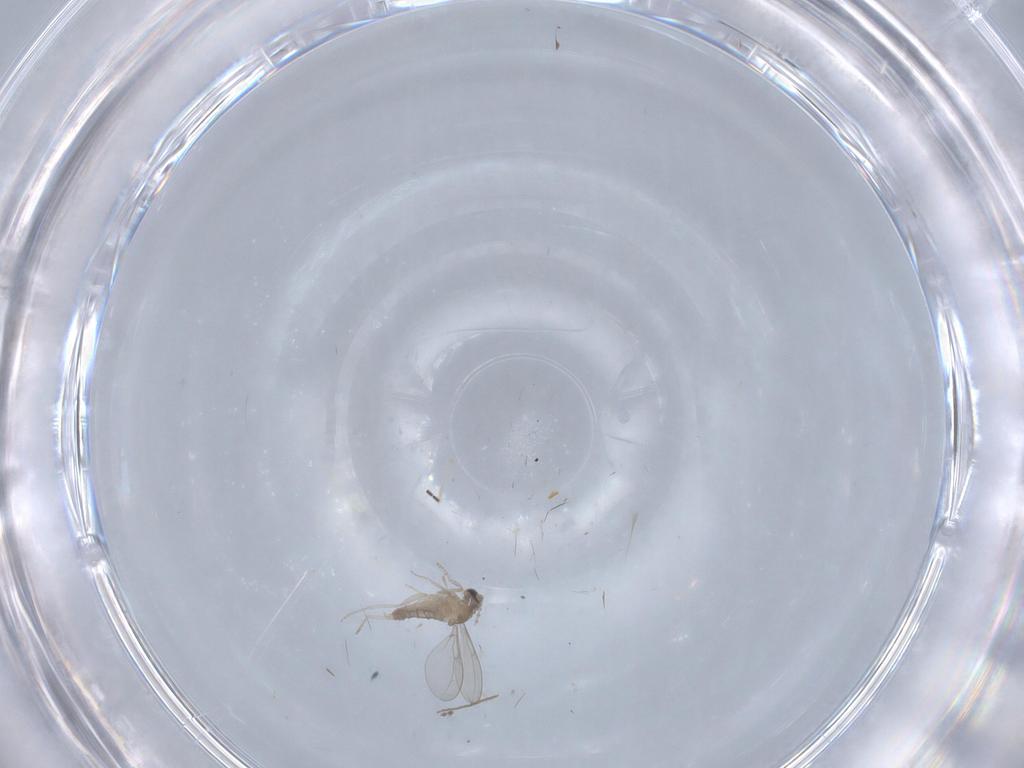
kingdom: Animalia
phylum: Arthropoda
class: Insecta
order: Diptera
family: Cecidomyiidae
